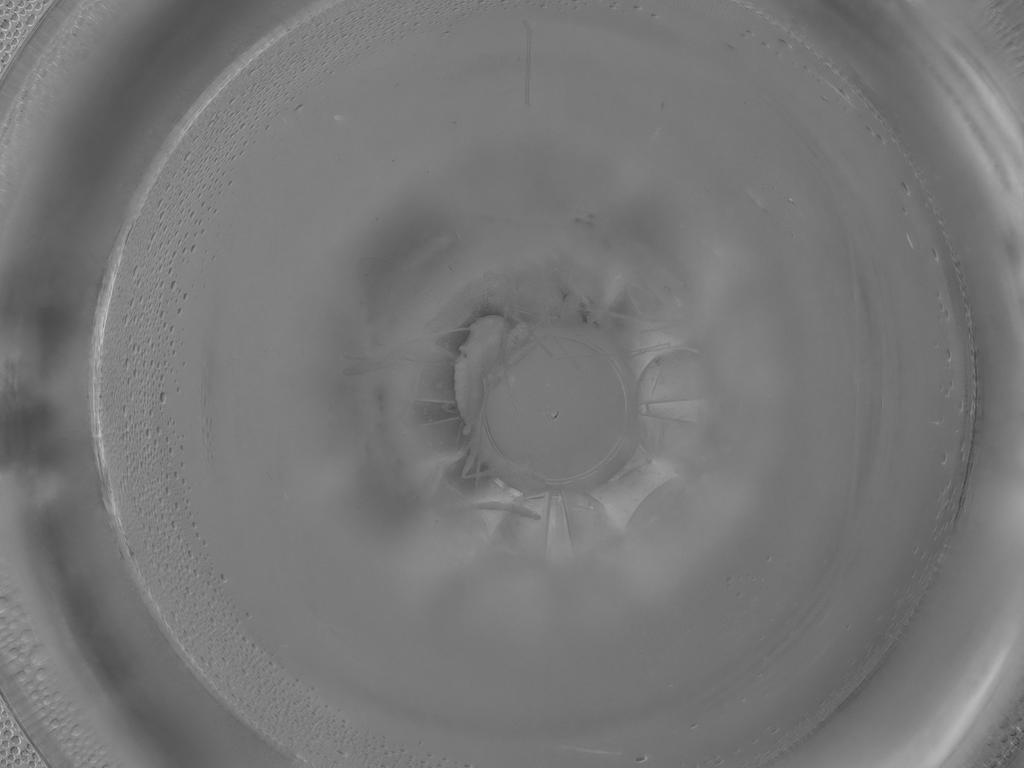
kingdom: Animalia
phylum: Arthropoda
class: Insecta
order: Diptera
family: Cecidomyiidae
